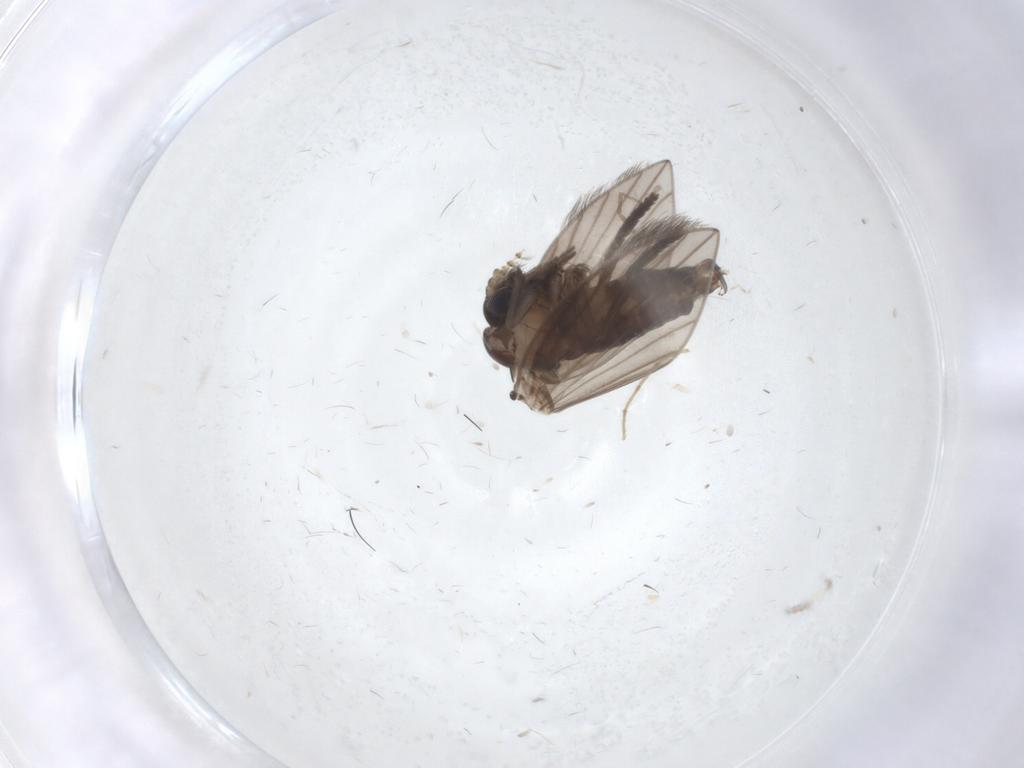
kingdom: Animalia
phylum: Arthropoda
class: Insecta
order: Diptera
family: Psychodidae
